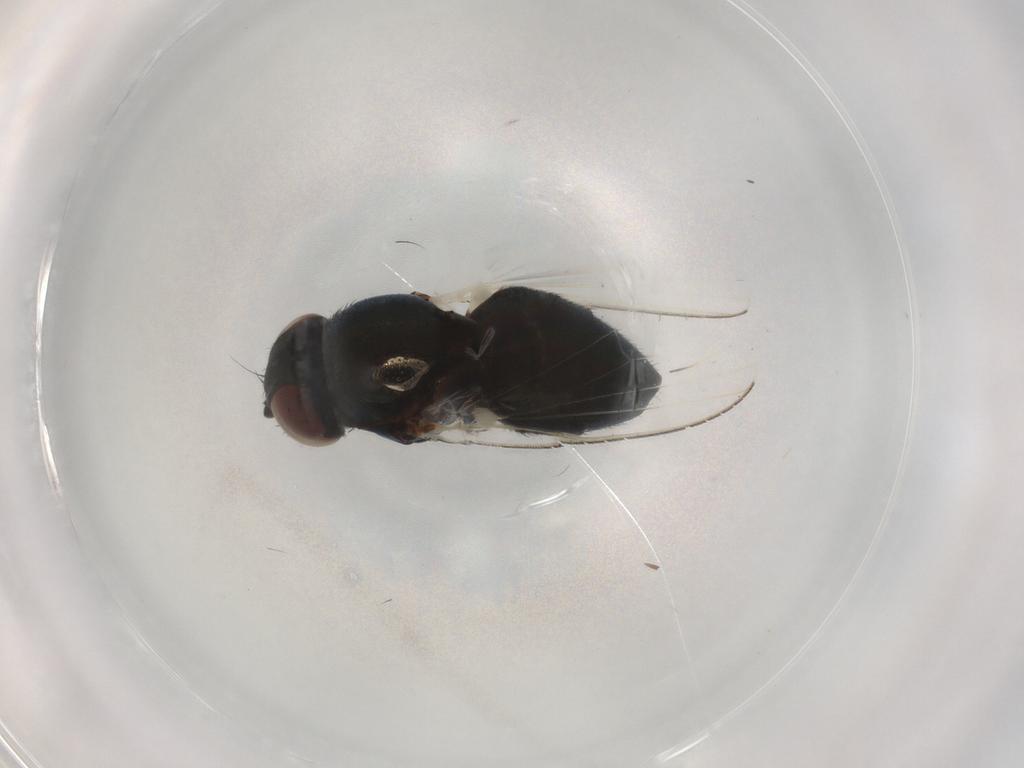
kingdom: Animalia
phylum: Arthropoda
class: Insecta
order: Diptera
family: Milichiidae
